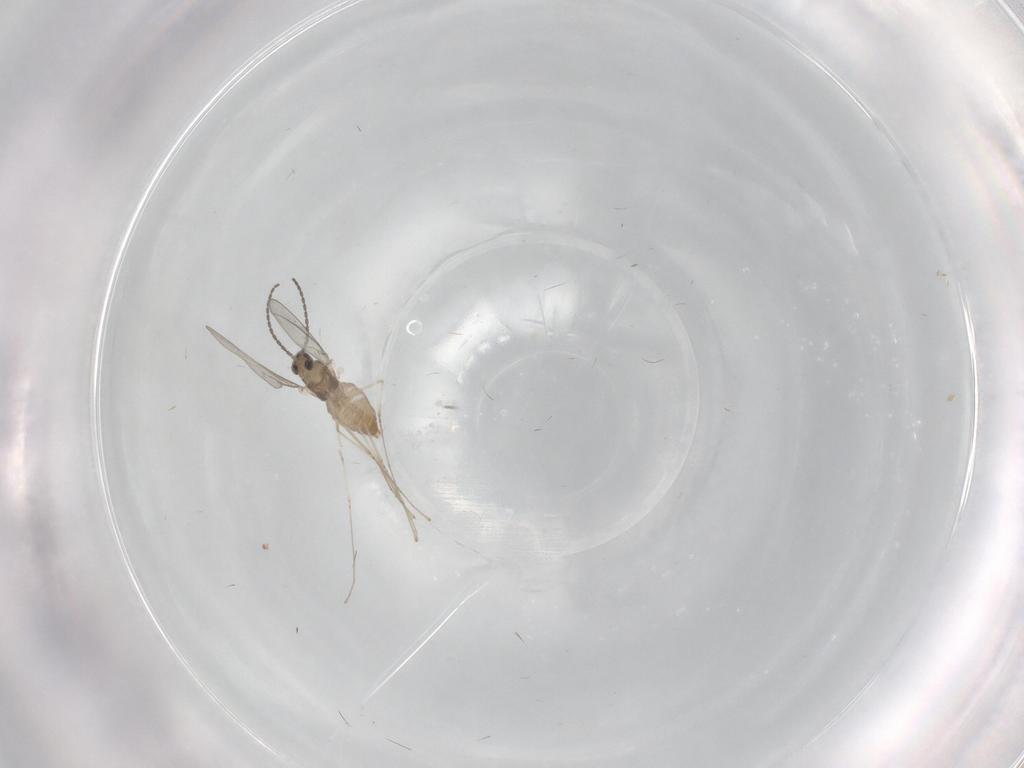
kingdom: Animalia
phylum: Arthropoda
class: Insecta
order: Diptera
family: Cecidomyiidae
